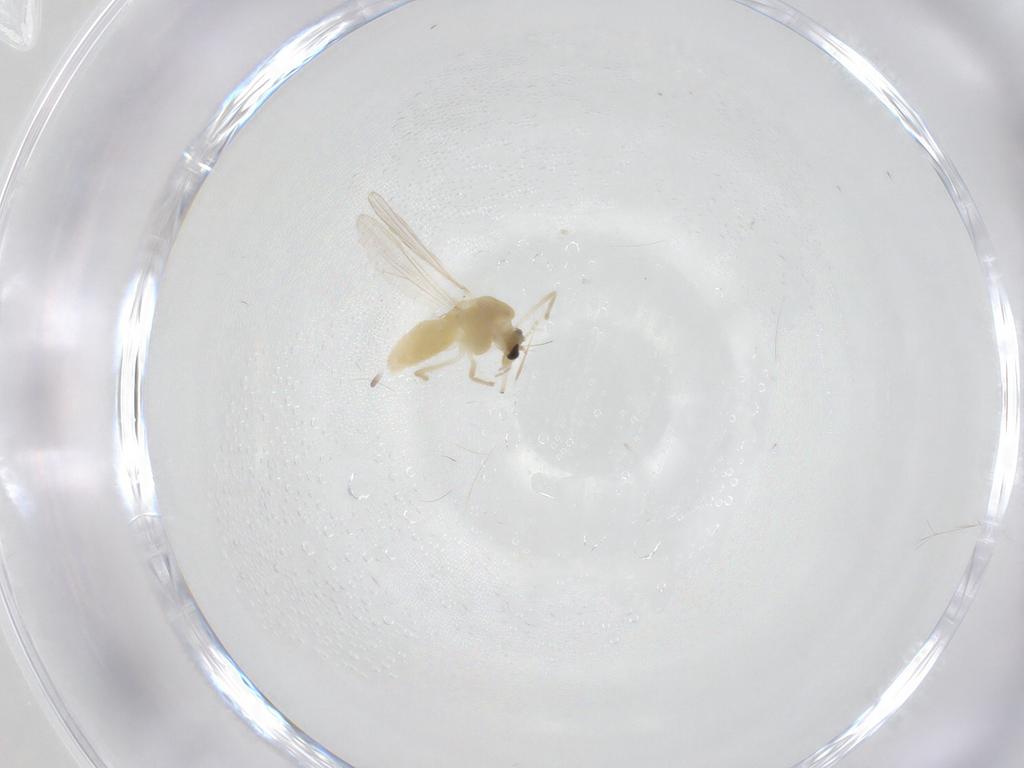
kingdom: Animalia
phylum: Arthropoda
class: Insecta
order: Diptera
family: Chironomidae
